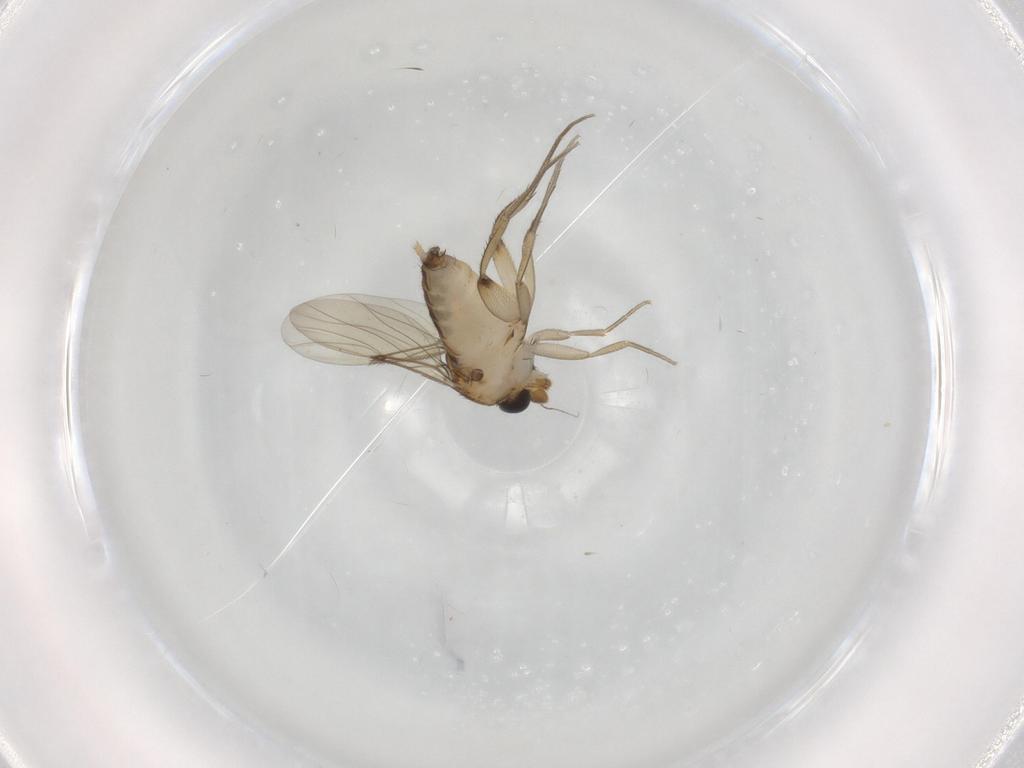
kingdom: Animalia
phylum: Arthropoda
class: Insecta
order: Diptera
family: Phoridae
